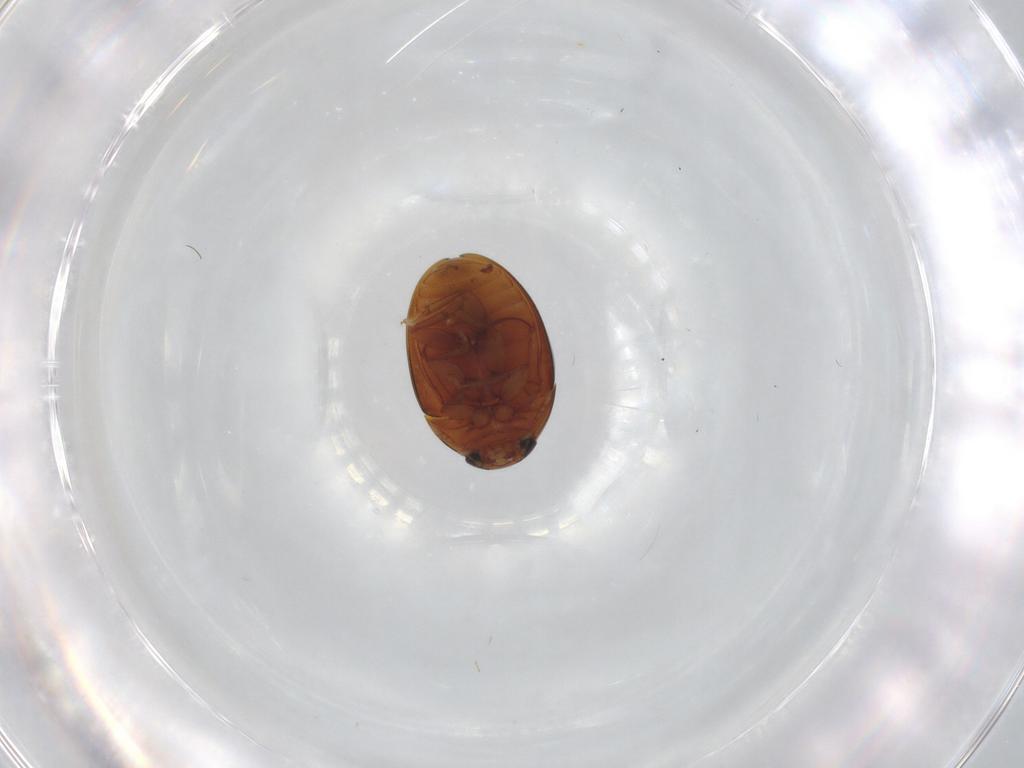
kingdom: Animalia
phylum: Arthropoda
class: Insecta
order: Coleoptera
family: Phalacridae
